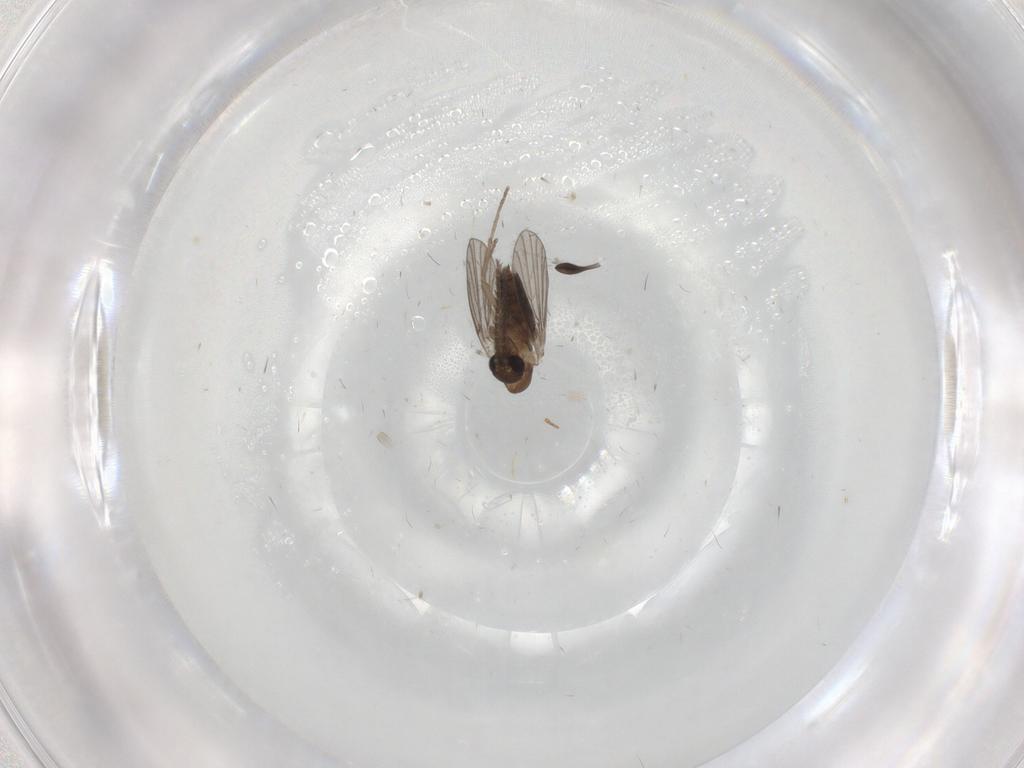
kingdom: Animalia
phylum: Arthropoda
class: Insecta
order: Diptera
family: Sciaridae
